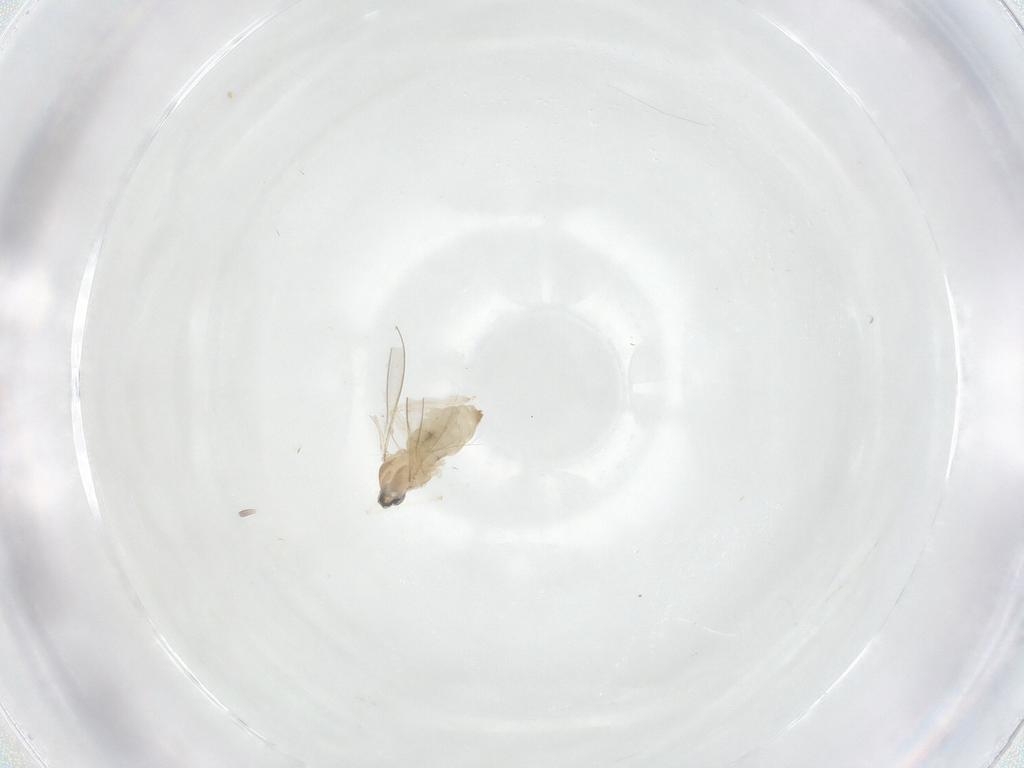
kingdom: Animalia
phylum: Arthropoda
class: Insecta
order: Diptera
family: Cecidomyiidae
